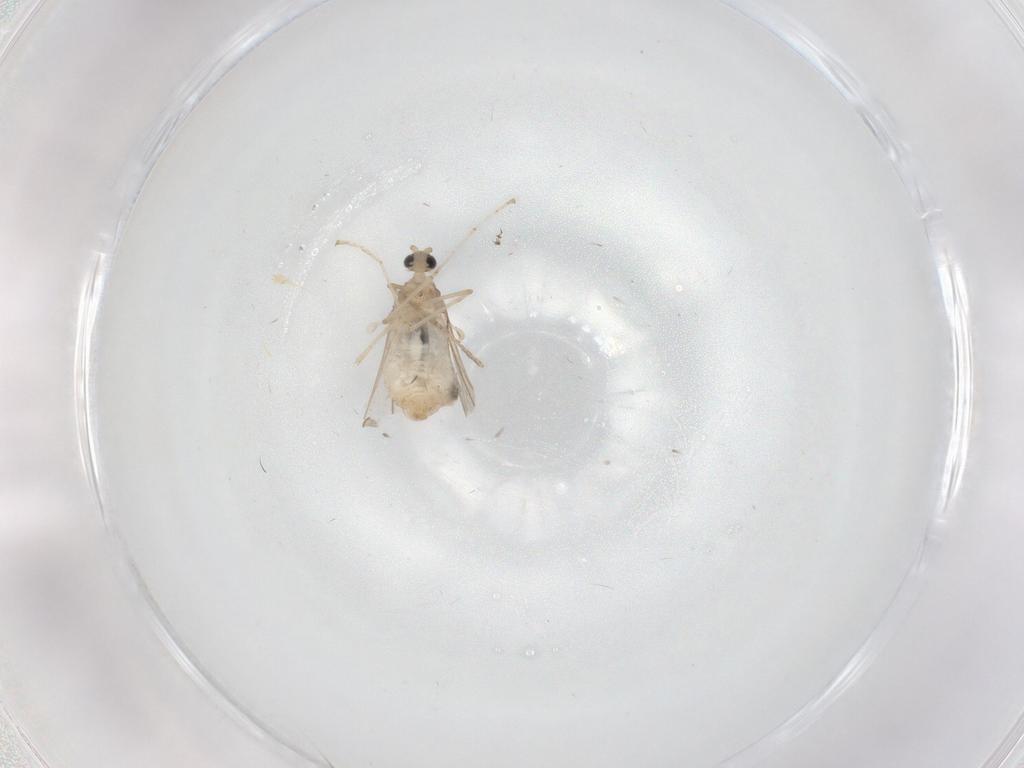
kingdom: Animalia
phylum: Arthropoda
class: Insecta
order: Diptera
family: Cecidomyiidae
